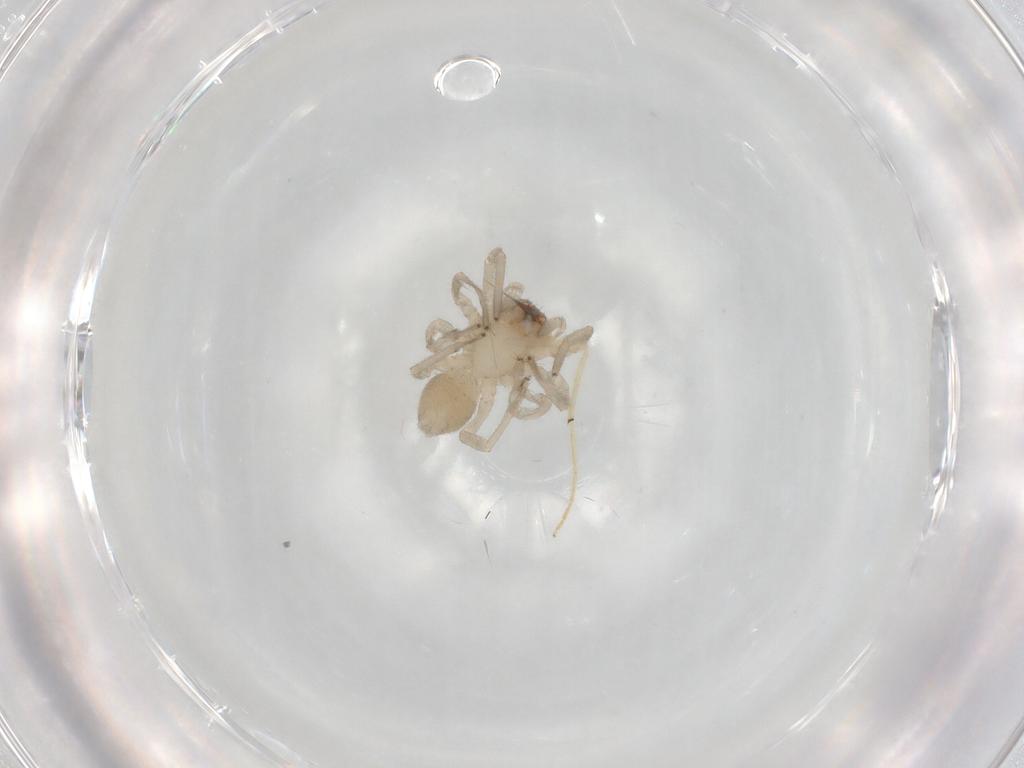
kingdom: Animalia
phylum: Arthropoda
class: Arachnida
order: Araneae
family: Trachelidae
